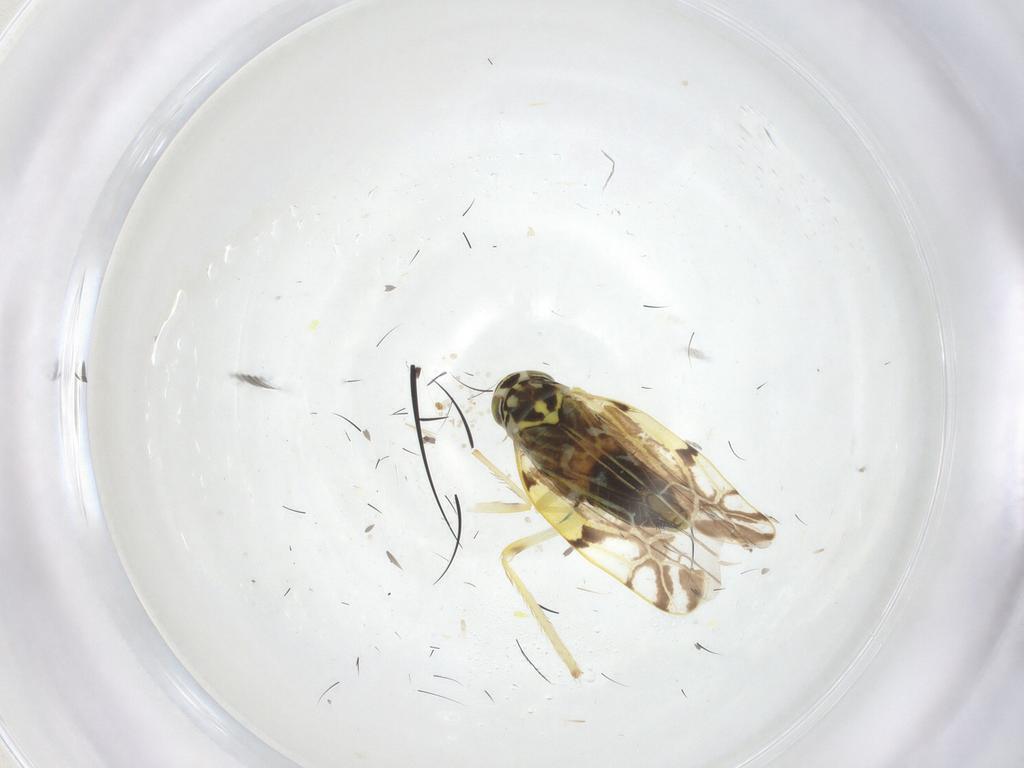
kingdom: Animalia
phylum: Arthropoda
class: Insecta
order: Hemiptera
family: Cicadellidae
